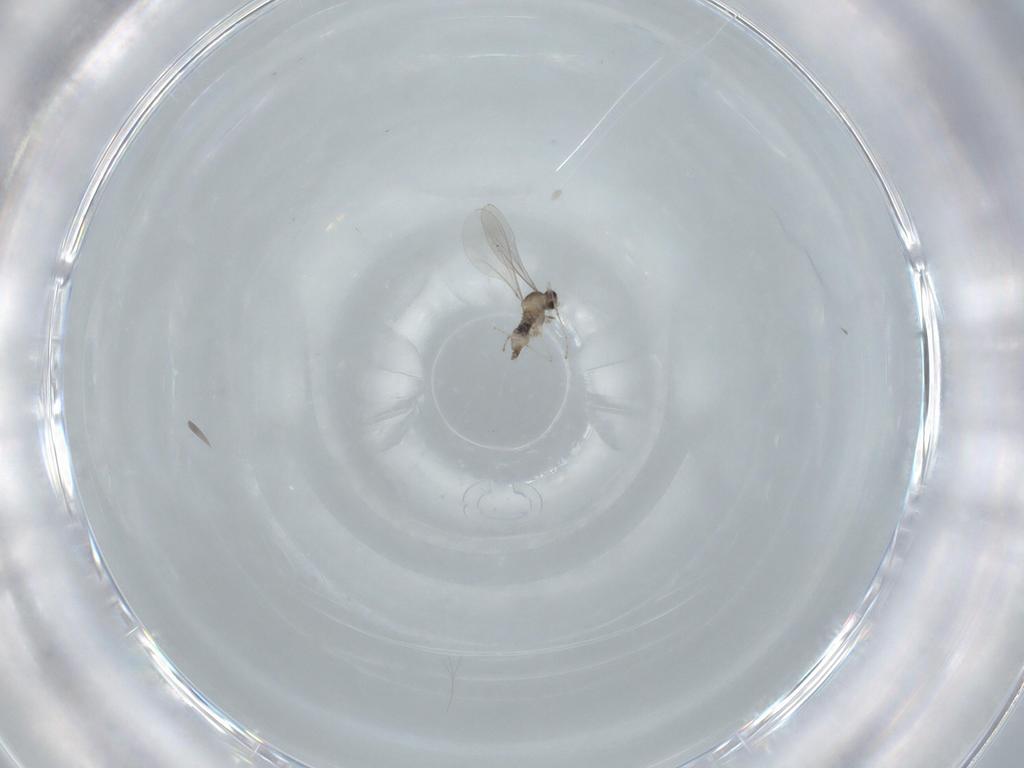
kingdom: Animalia
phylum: Arthropoda
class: Insecta
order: Diptera
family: Cecidomyiidae
